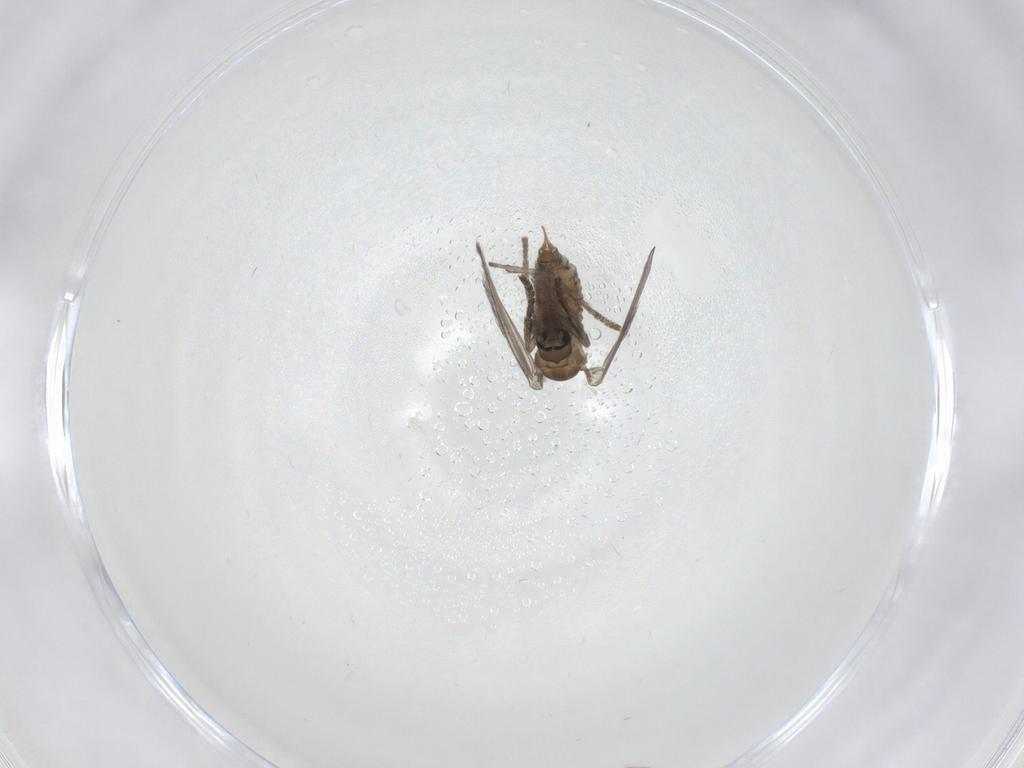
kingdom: Animalia
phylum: Arthropoda
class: Insecta
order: Diptera
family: Psychodidae
